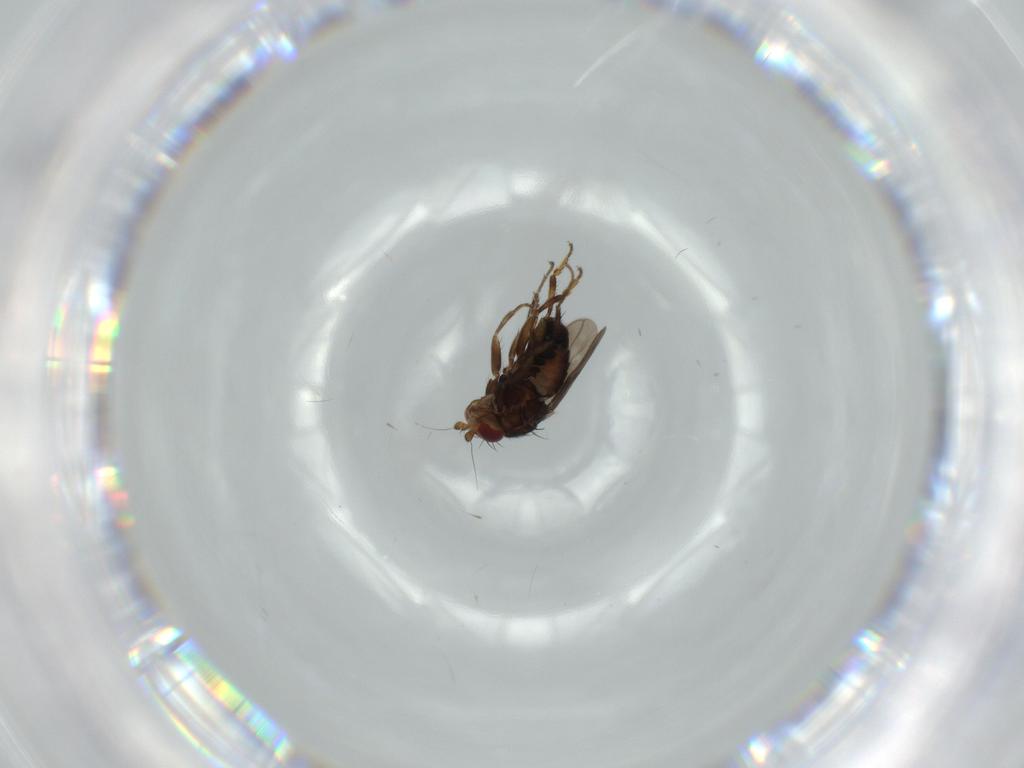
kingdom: Animalia
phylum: Arthropoda
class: Insecta
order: Diptera
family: Sphaeroceridae
